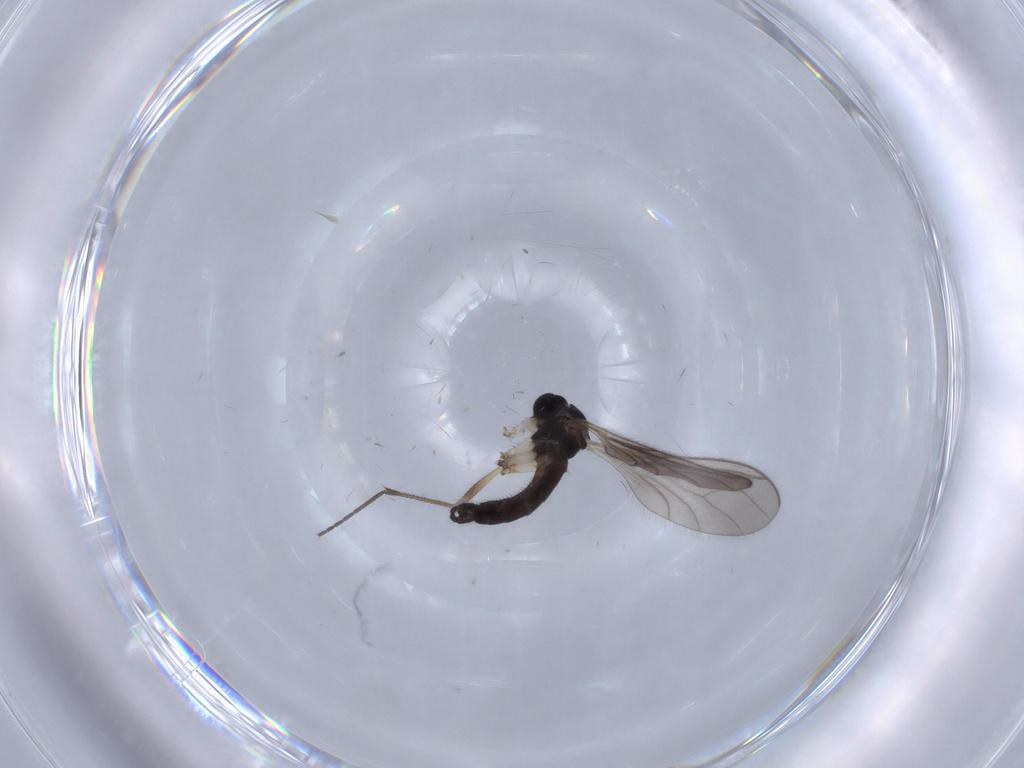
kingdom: Animalia
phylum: Arthropoda
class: Insecta
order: Diptera
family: Sciaridae
